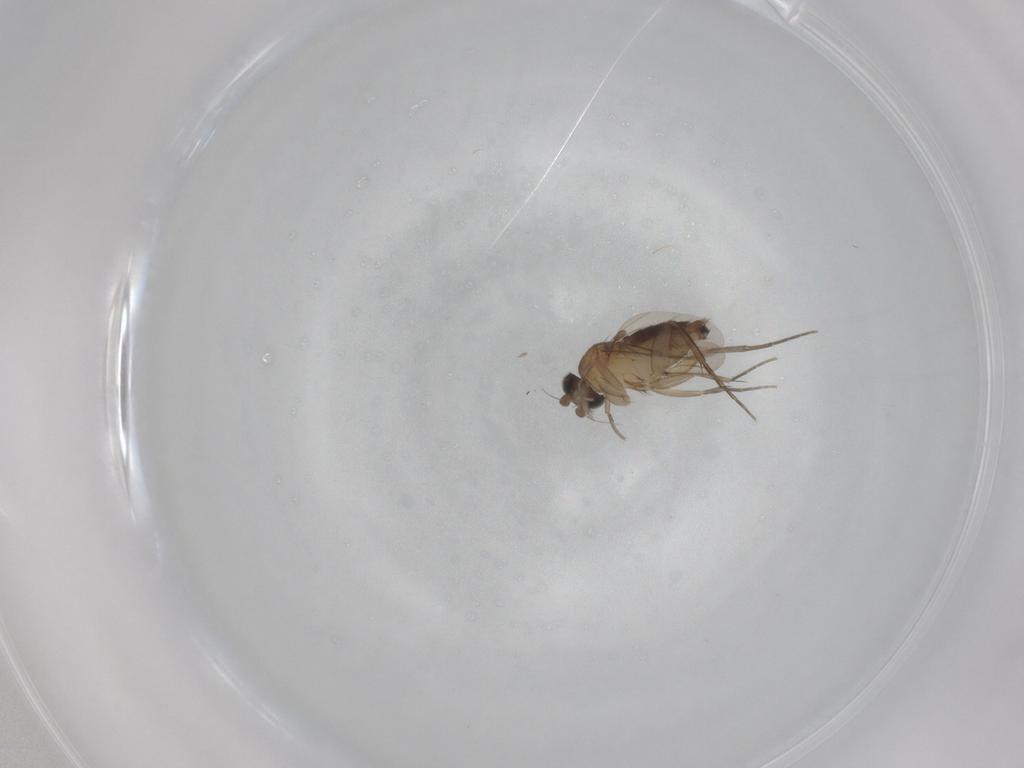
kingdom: Animalia
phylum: Arthropoda
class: Insecta
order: Diptera
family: Phoridae
